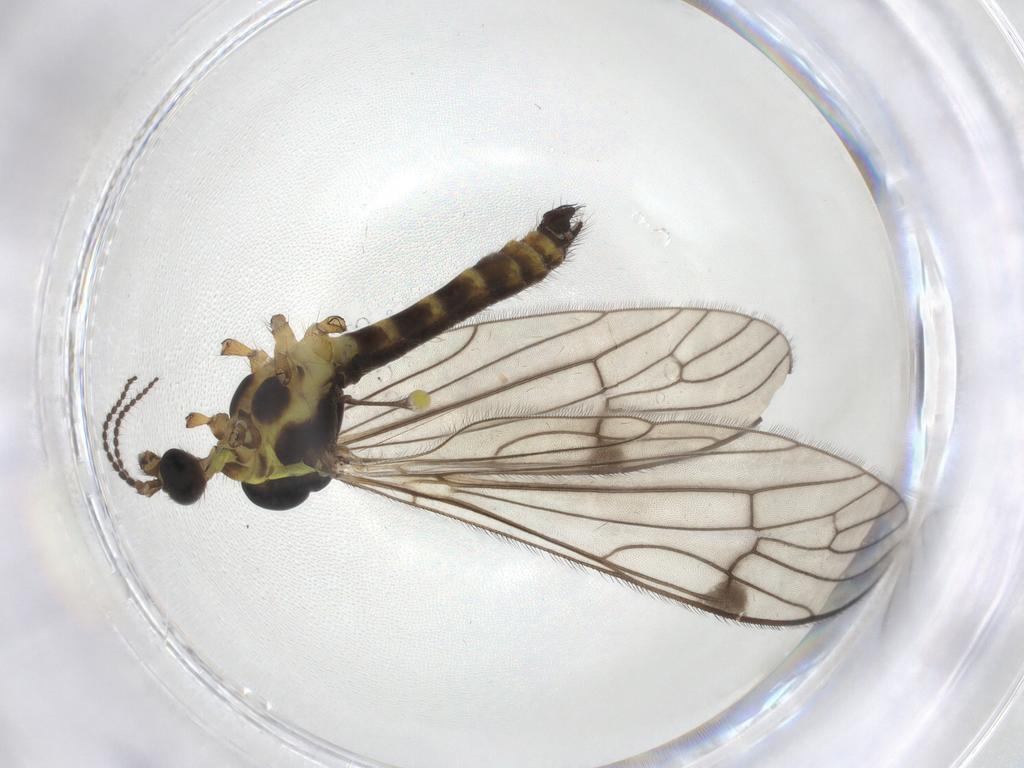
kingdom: Animalia
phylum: Arthropoda
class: Insecta
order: Diptera
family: Limoniidae
